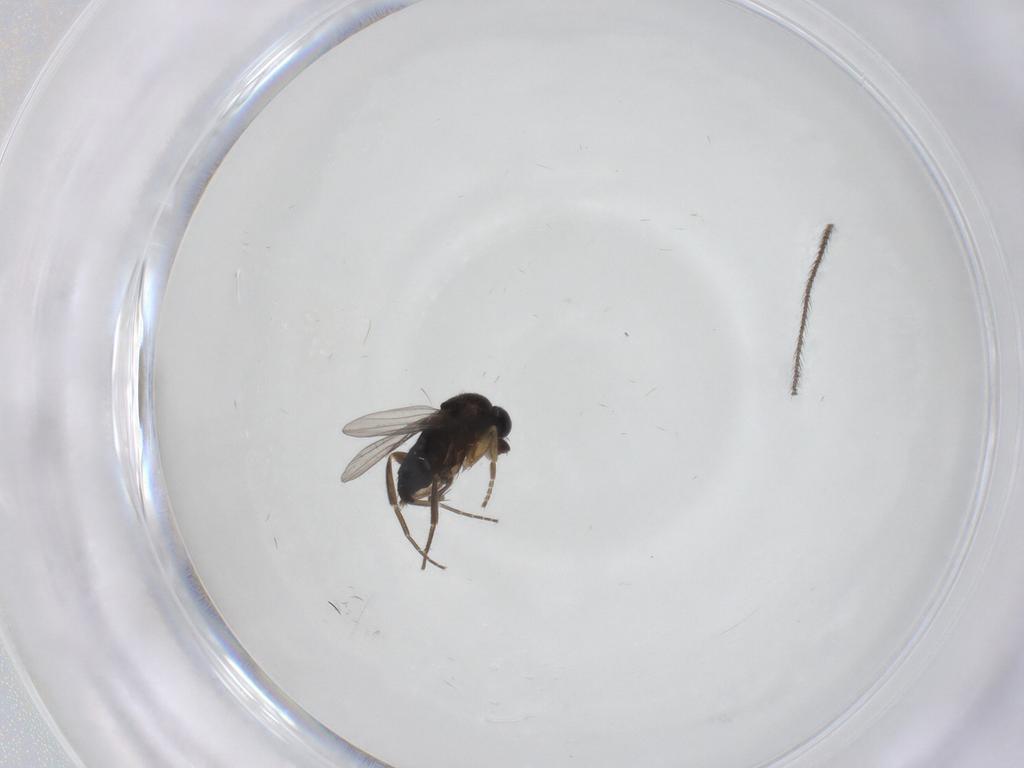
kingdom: Animalia
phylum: Arthropoda
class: Insecta
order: Diptera
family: Phoridae
